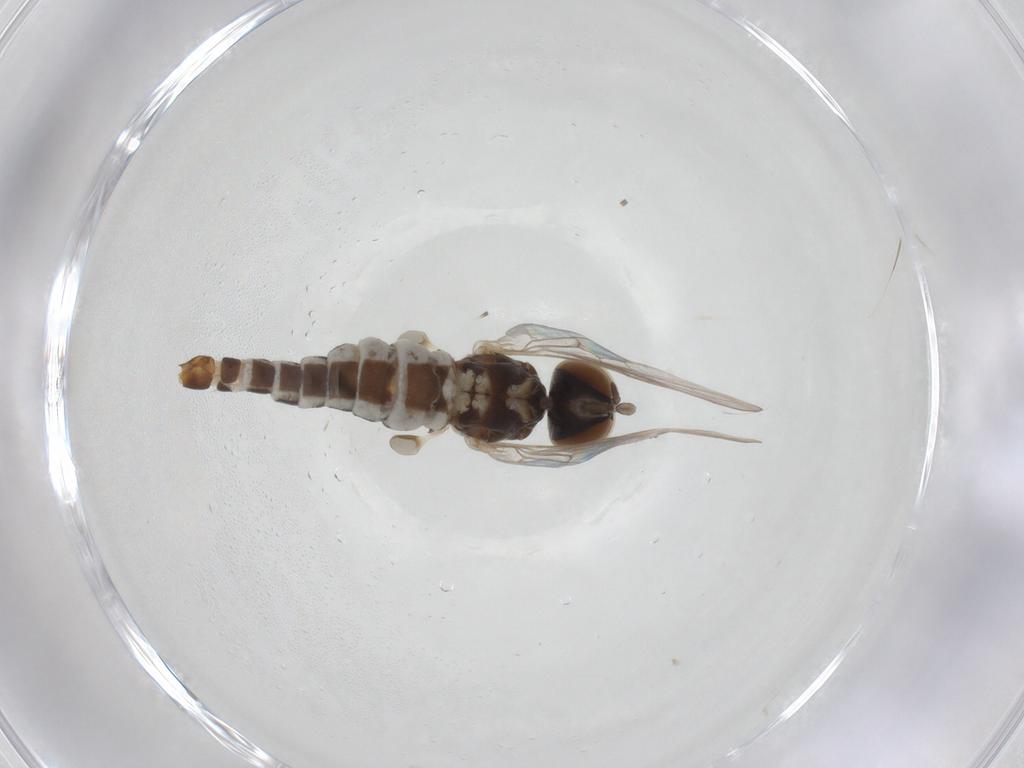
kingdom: Animalia
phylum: Arthropoda
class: Insecta
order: Diptera
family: Scenopinidae
